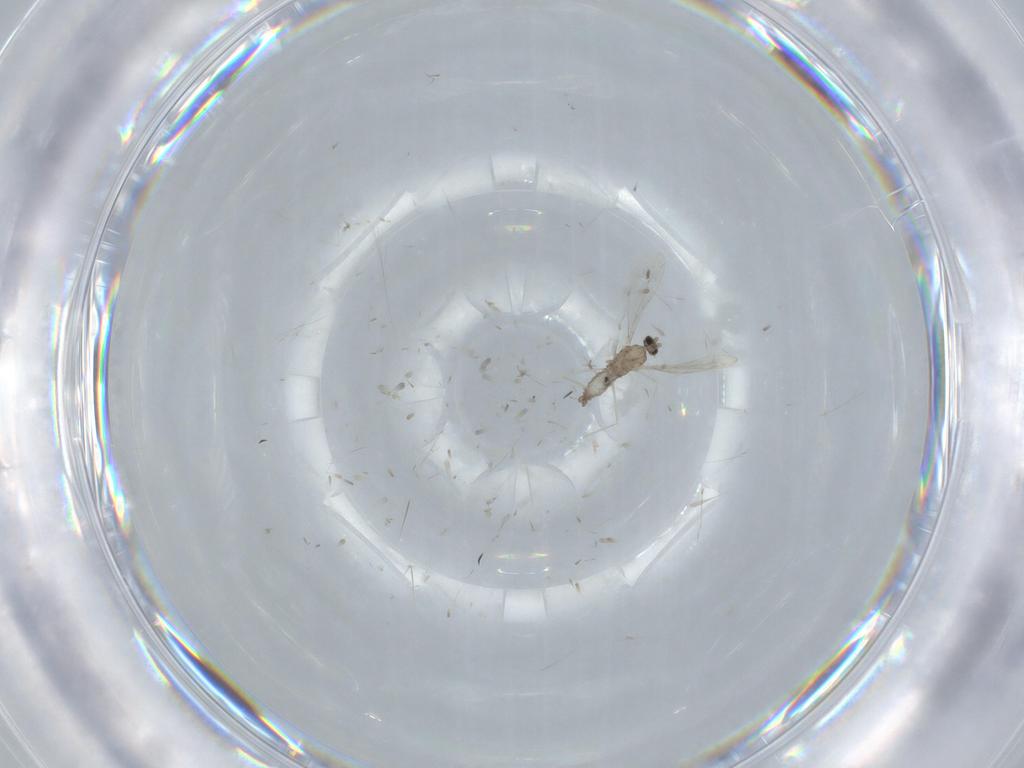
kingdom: Animalia
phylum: Arthropoda
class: Insecta
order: Diptera
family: Cecidomyiidae
